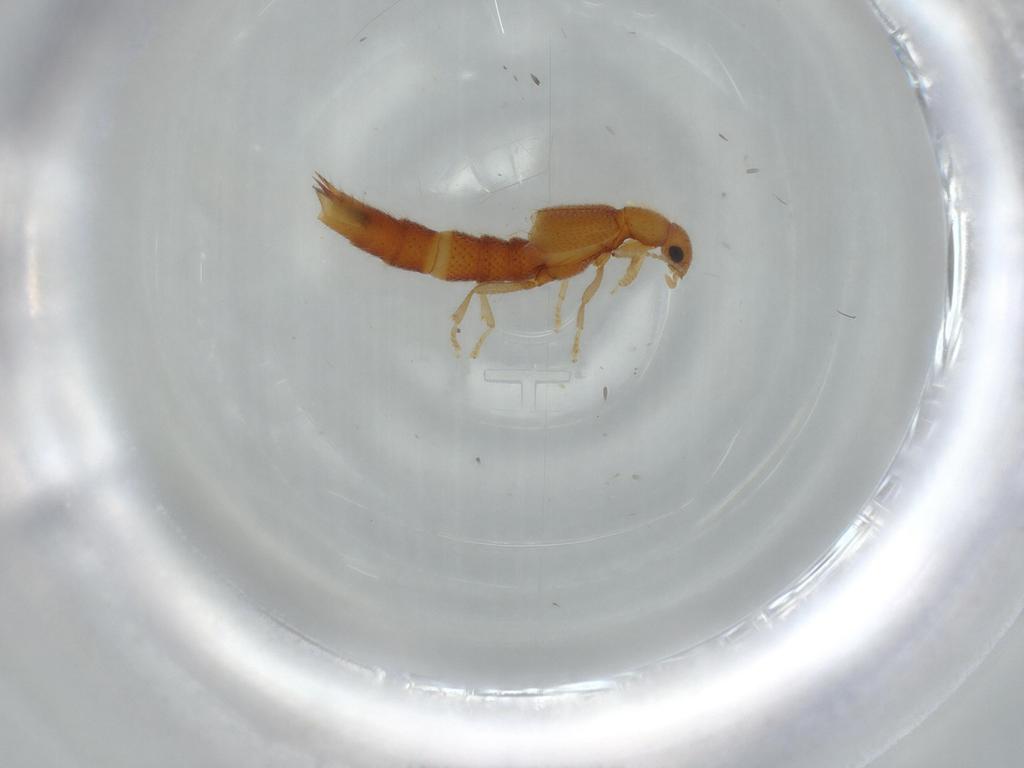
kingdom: Animalia
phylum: Arthropoda
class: Insecta
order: Coleoptera
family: Staphylinidae
